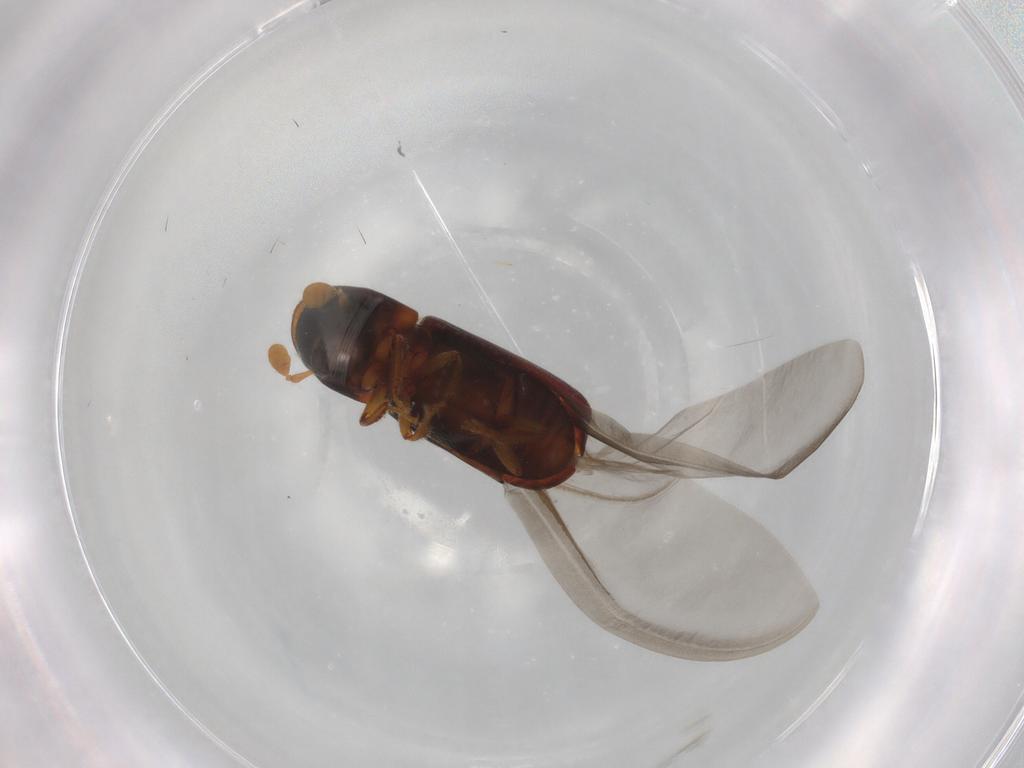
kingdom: Animalia
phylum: Arthropoda
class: Insecta
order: Coleoptera
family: Curculionidae
